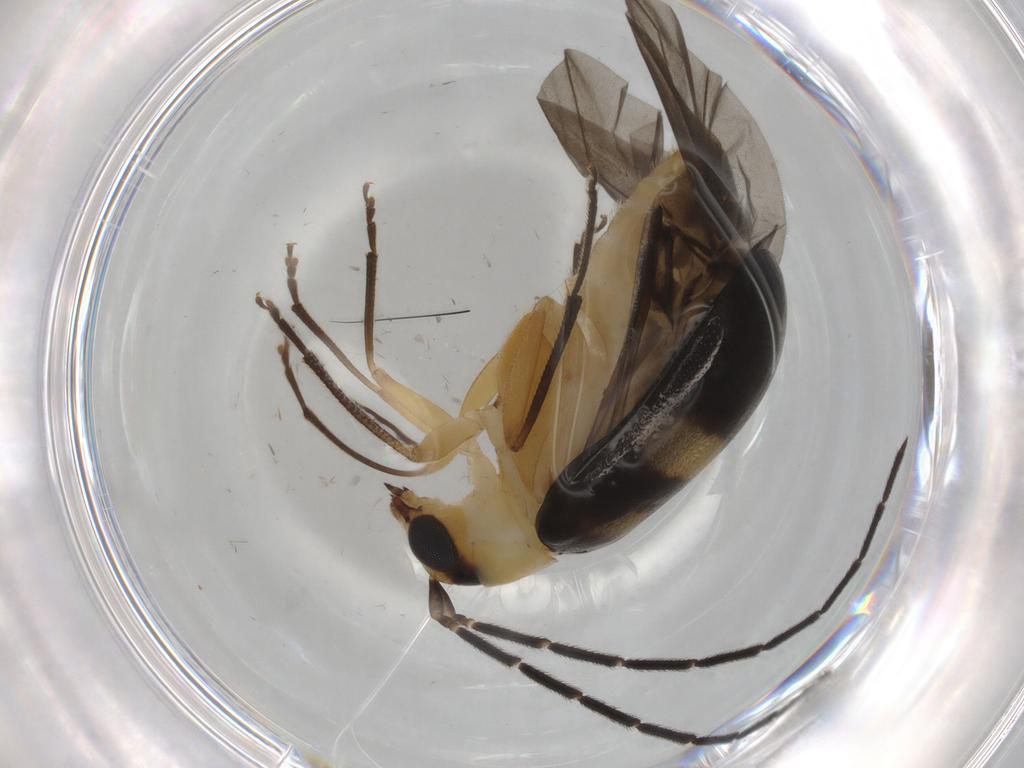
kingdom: Animalia
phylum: Arthropoda
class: Insecta
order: Coleoptera
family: Chrysomelidae
